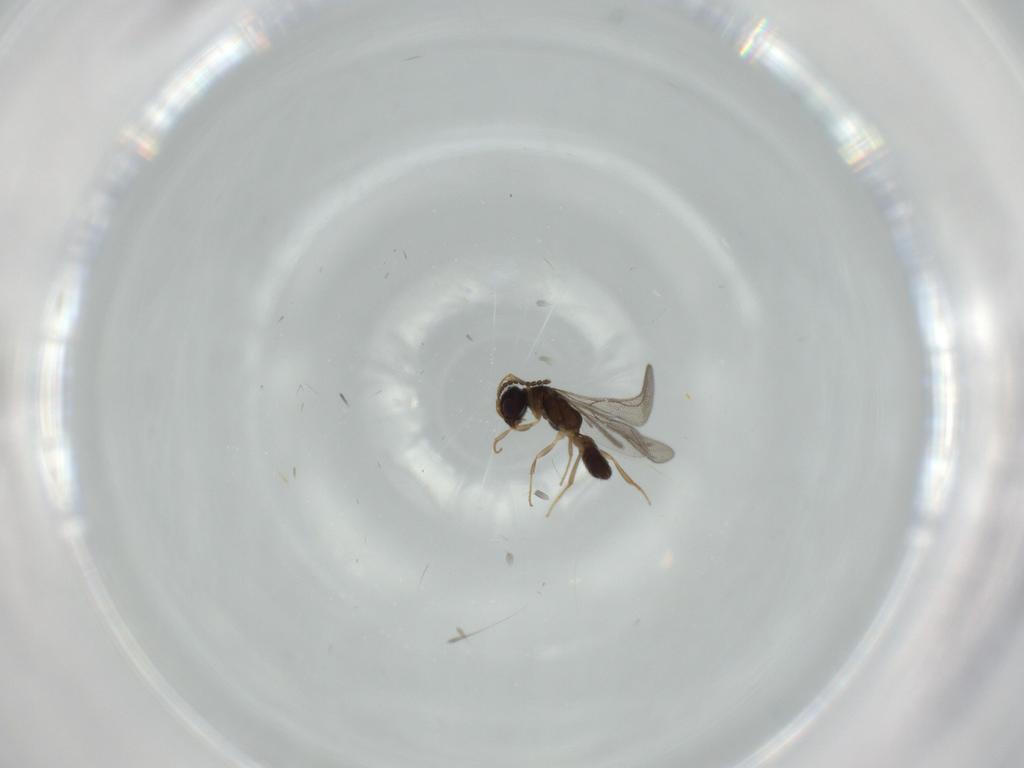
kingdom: Animalia
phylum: Arthropoda
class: Insecta
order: Hymenoptera
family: Bethylidae
